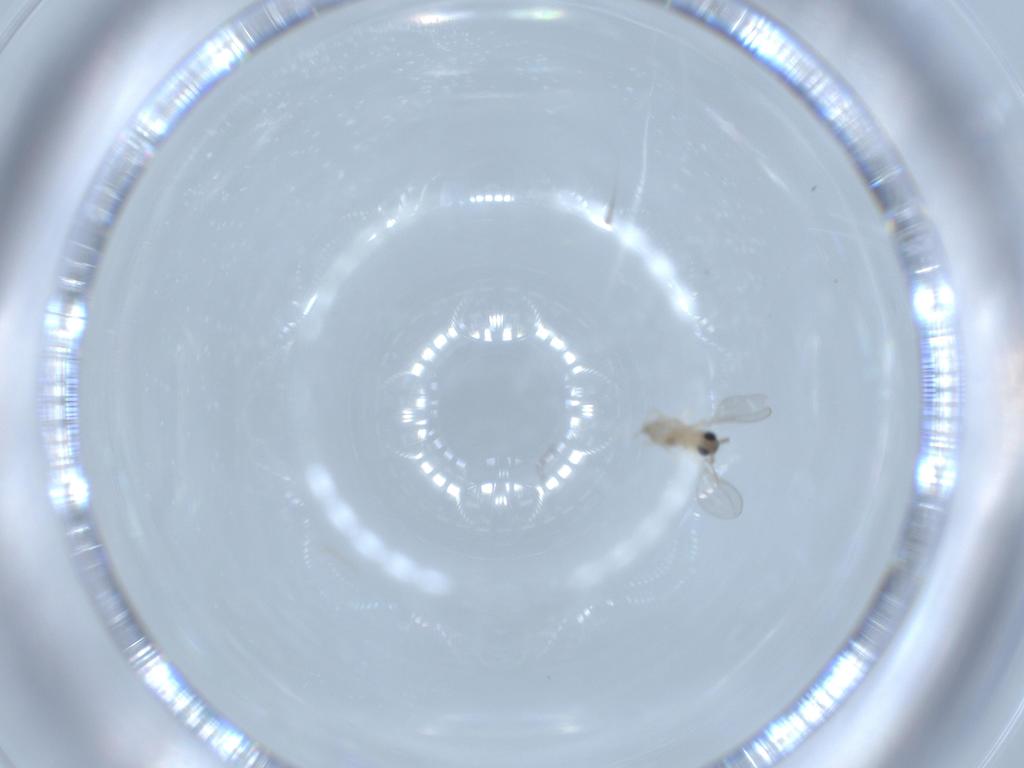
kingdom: Animalia
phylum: Arthropoda
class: Insecta
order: Diptera
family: Cecidomyiidae
